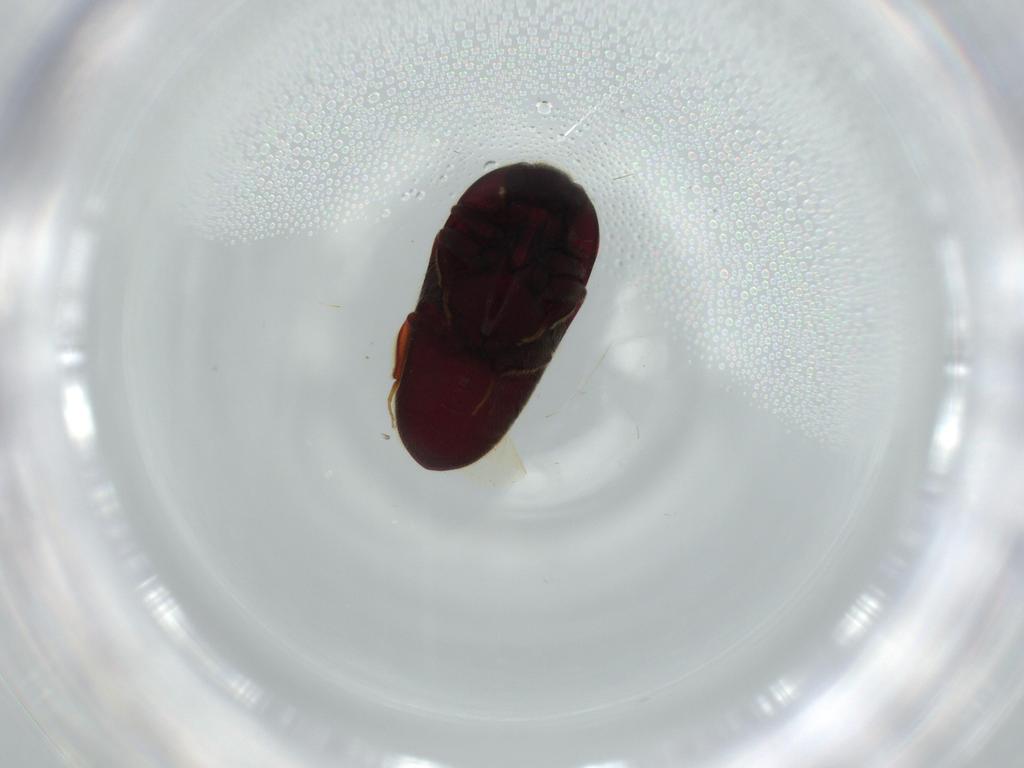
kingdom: Animalia
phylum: Arthropoda
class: Insecta
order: Coleoptera
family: Throscidae
